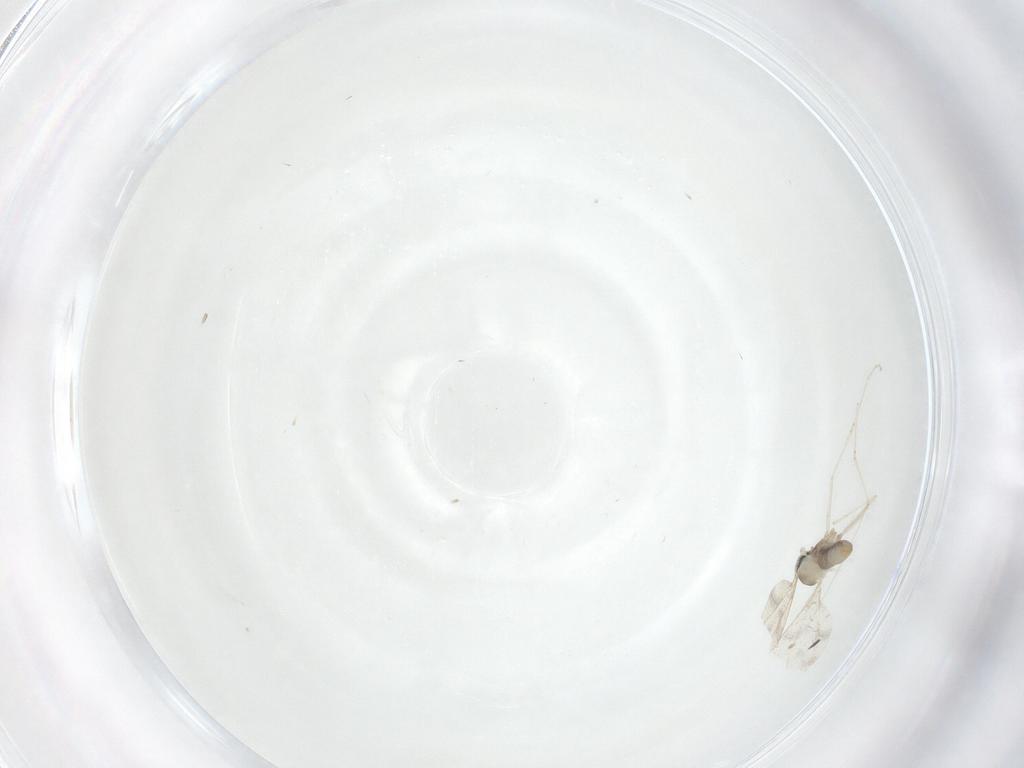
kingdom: Animalia
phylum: Arthropoda
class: Insecta
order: Diptera
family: Cecidomyiidae
